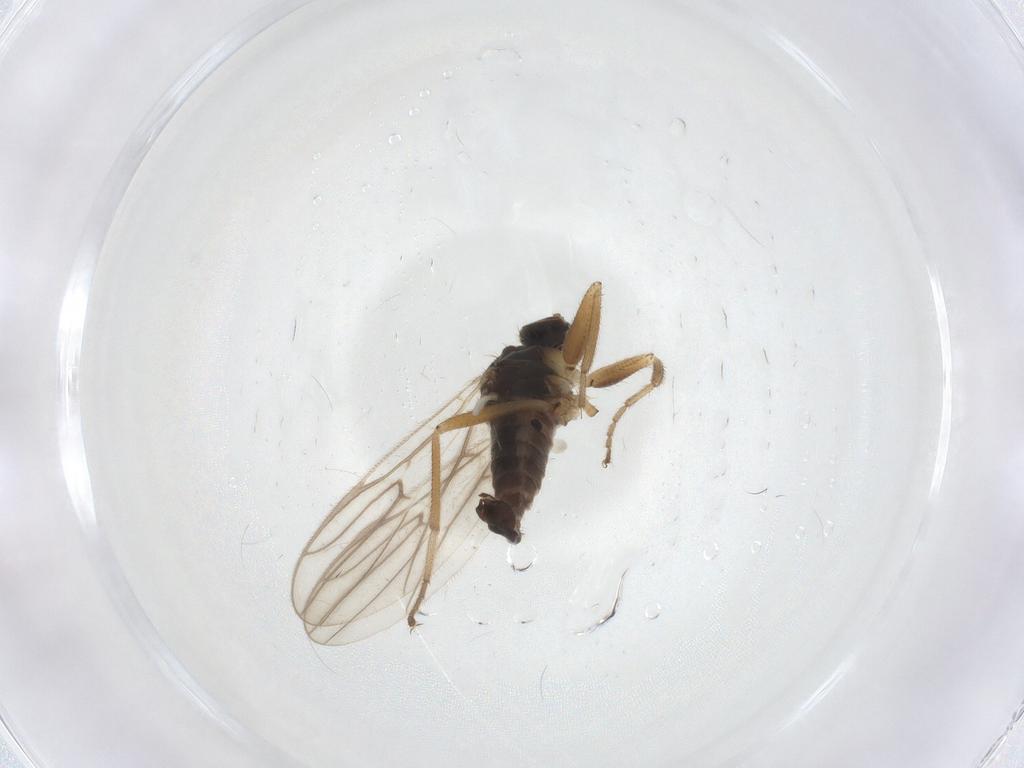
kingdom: Animalia
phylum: Arthropoda
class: Insecta
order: Diptera
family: Hybotidae
